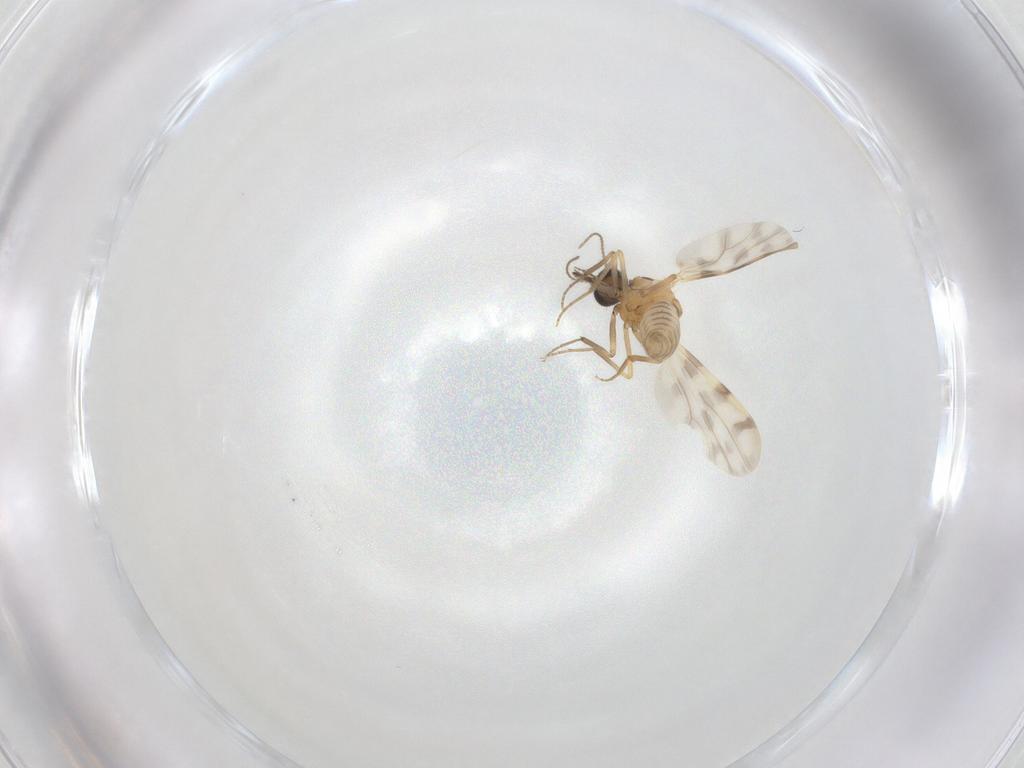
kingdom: Animalia
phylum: Arthropoda
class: Insecta
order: Diptera
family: Ceratopogonidae
